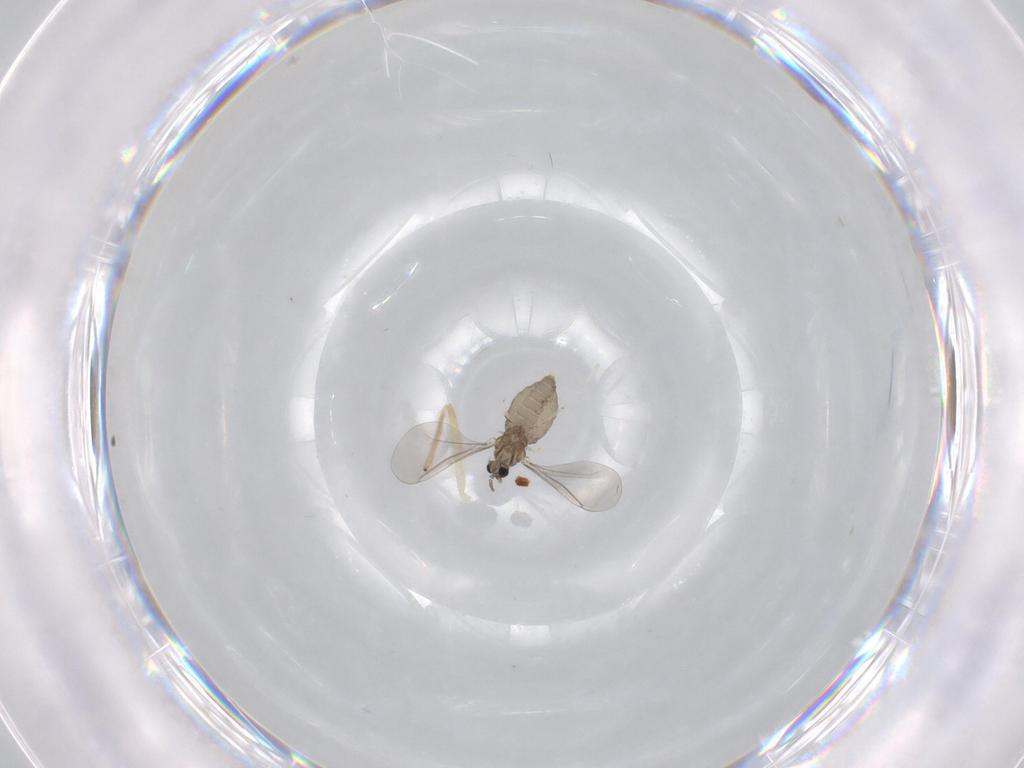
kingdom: Animalia
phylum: Arthropoda
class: Insecta
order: Diptera
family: Cecidomyiidae
